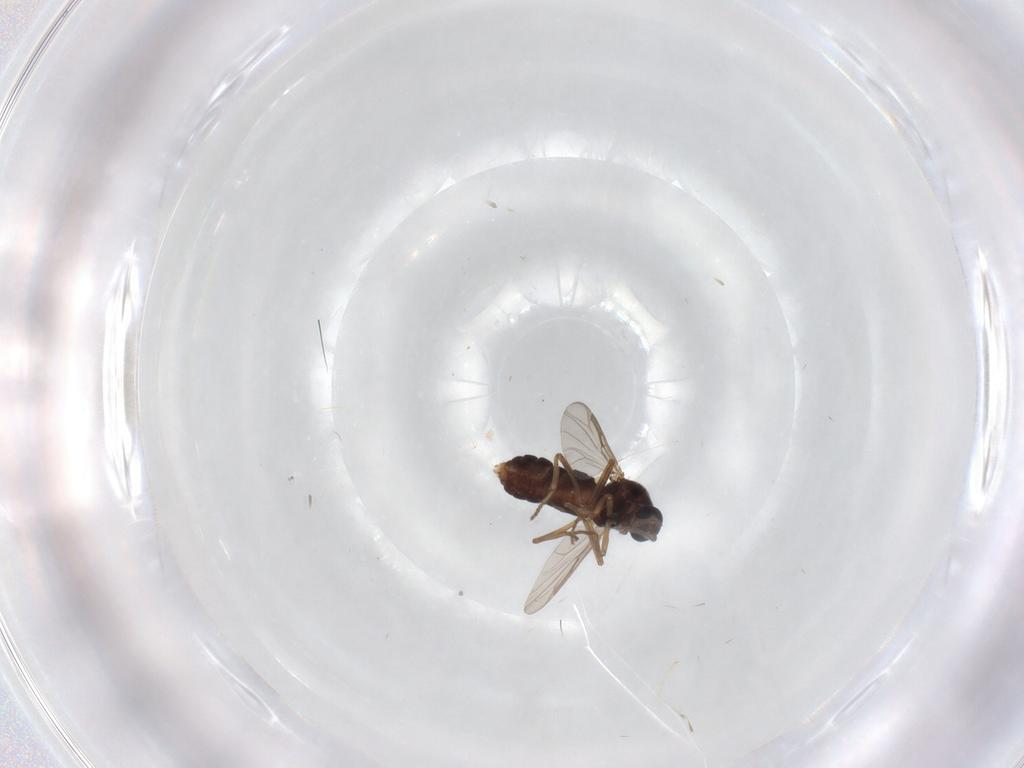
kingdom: Animalia
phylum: Arthropoda
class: Insecta
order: Diptera
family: Ceratopogonidae
